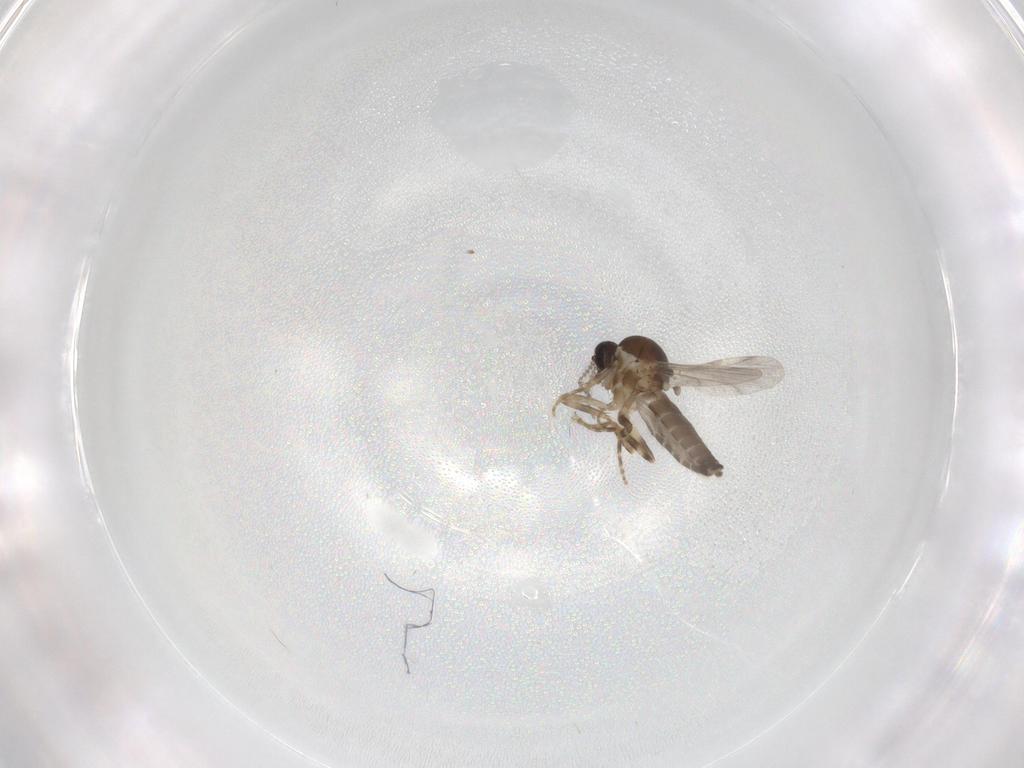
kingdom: Animalia
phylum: Arthropoda
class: Insecta
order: Diptera
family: Ceratopogonidae
